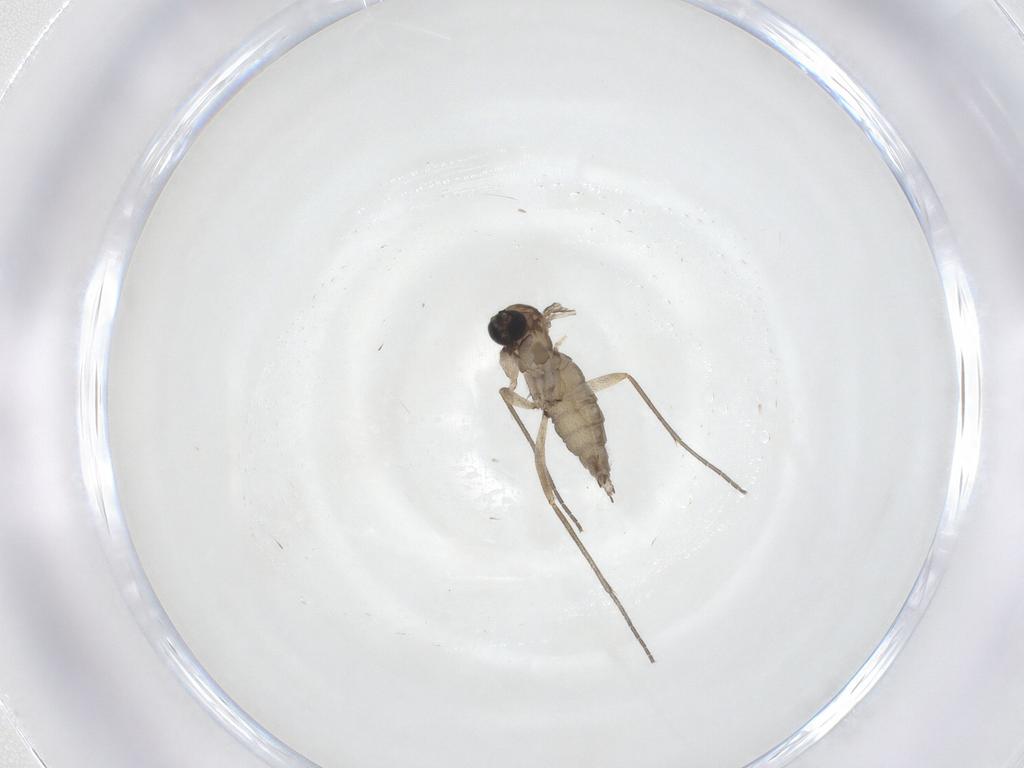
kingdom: Animalia
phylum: Arthropoda
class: Insecta
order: Diptera
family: Sciaridae
